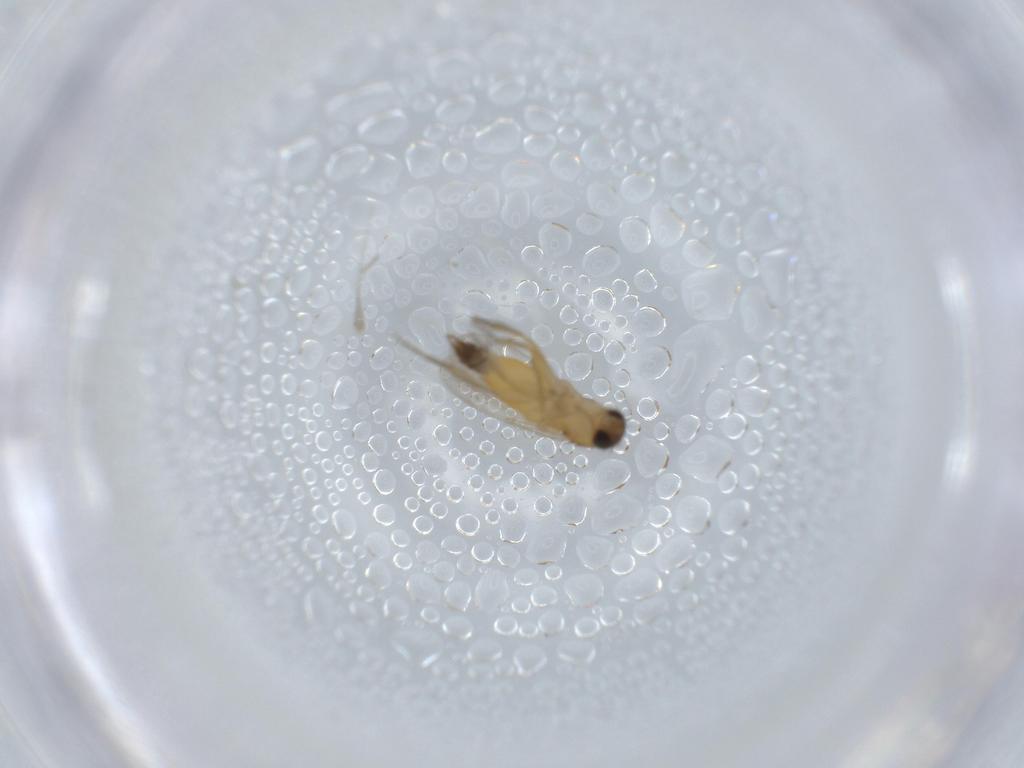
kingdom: Animalia
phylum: Arthropoda
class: Insecta
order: Diptera
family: Phoridae
